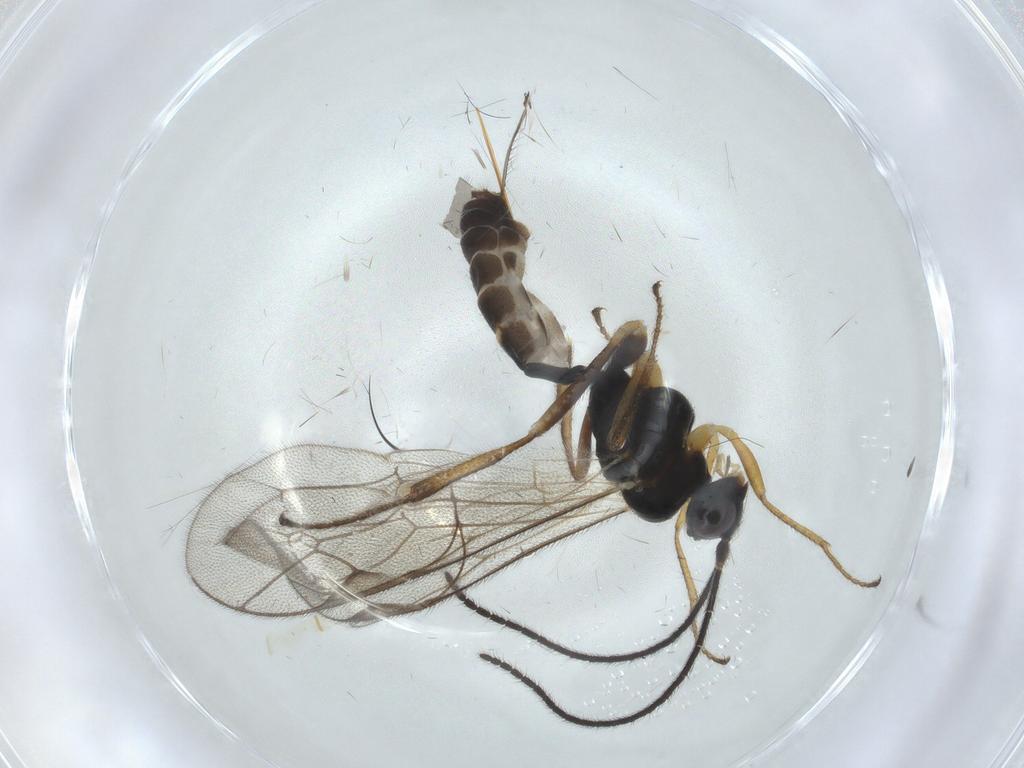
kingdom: Animalia
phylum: Arthropoda
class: Insecta
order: Hymenoptera
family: Ichneumonidae
